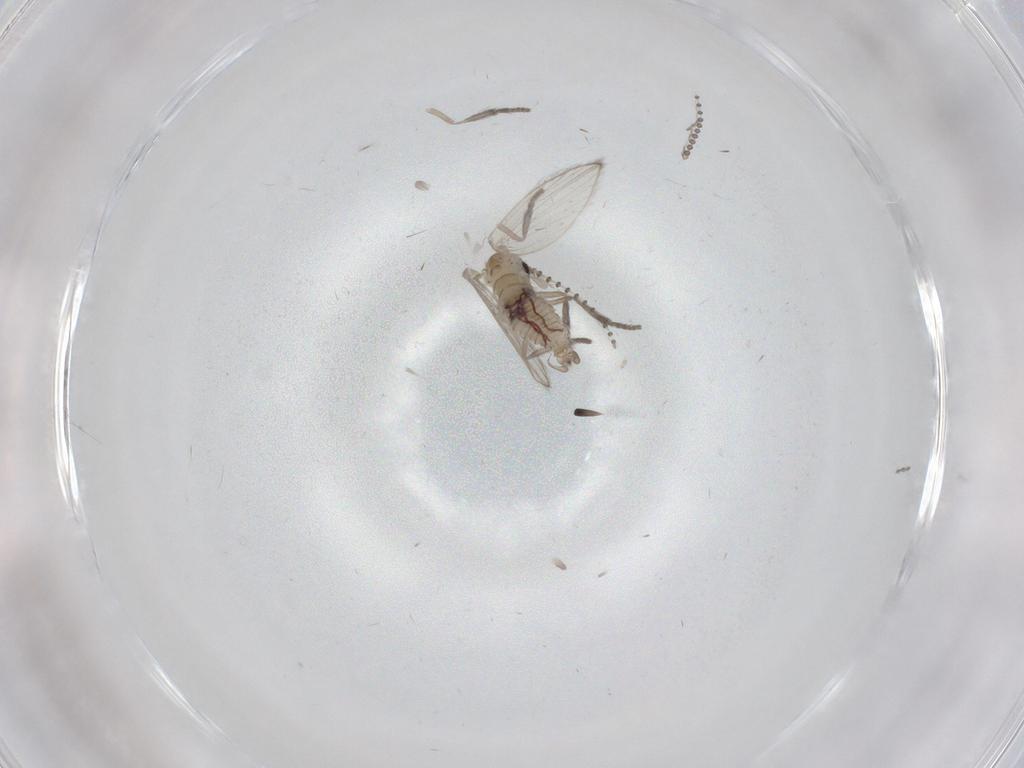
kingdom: Animalia
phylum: Arthropoda
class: Insecta
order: Diptera
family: Psychodidae
